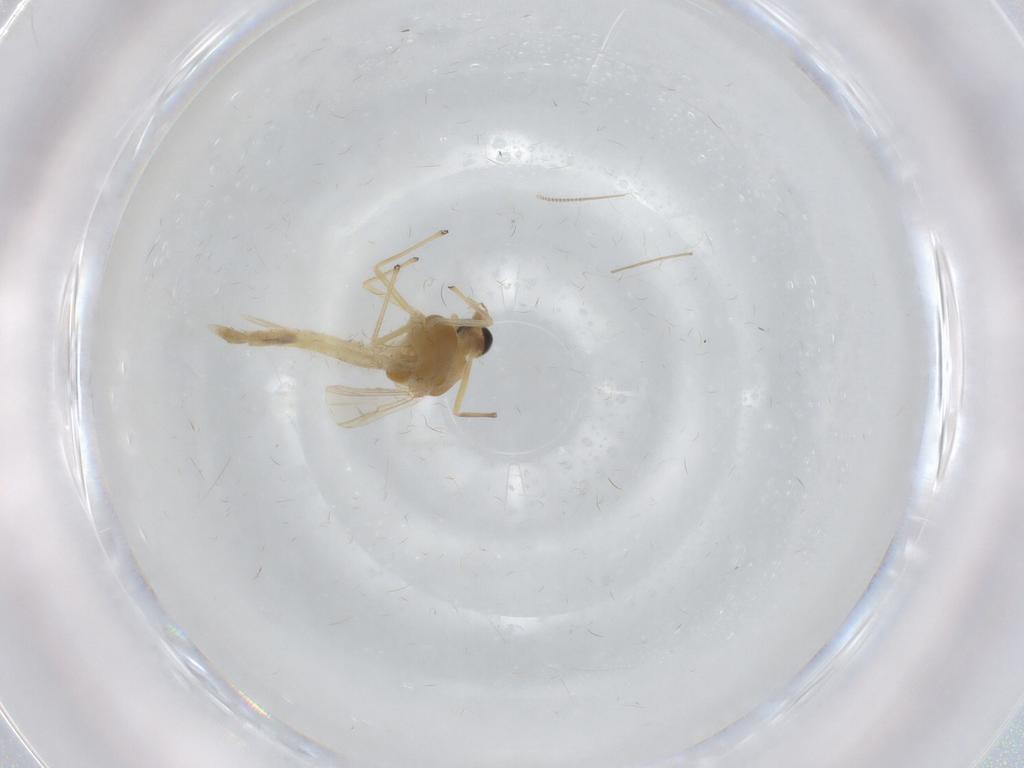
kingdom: Animalia
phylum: Arthropoda
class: Insecta
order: Diptera
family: Chironomidae
